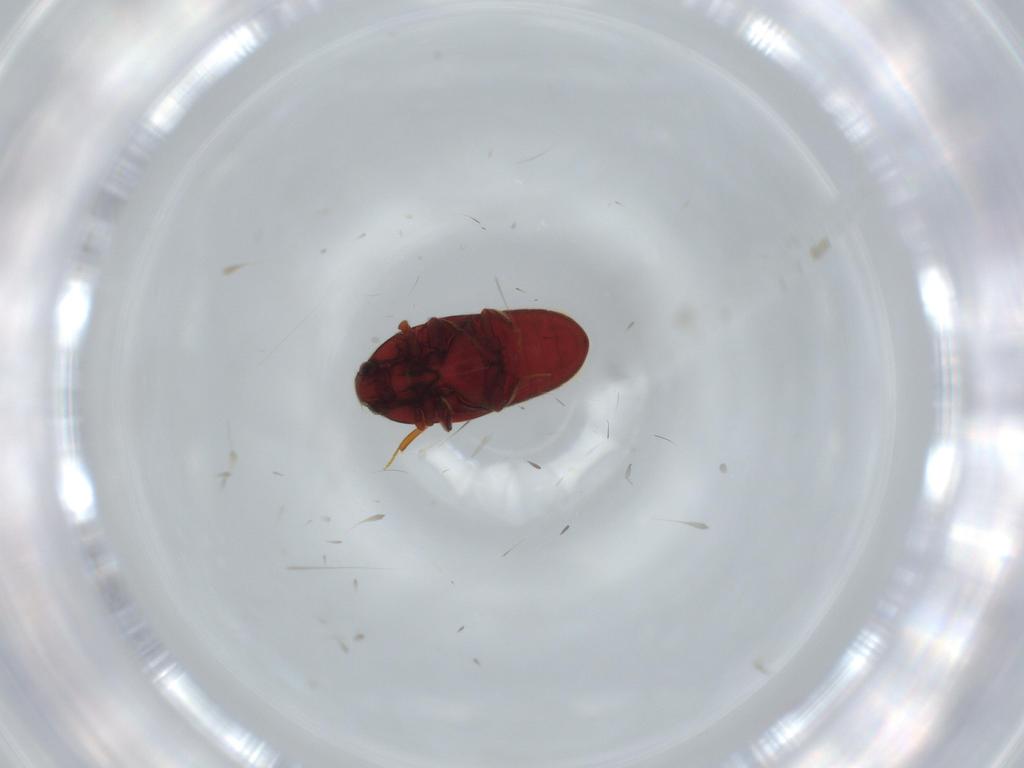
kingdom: Animalia
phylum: Arthropoda
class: Insecta
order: Coleoptera
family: Throscidae
